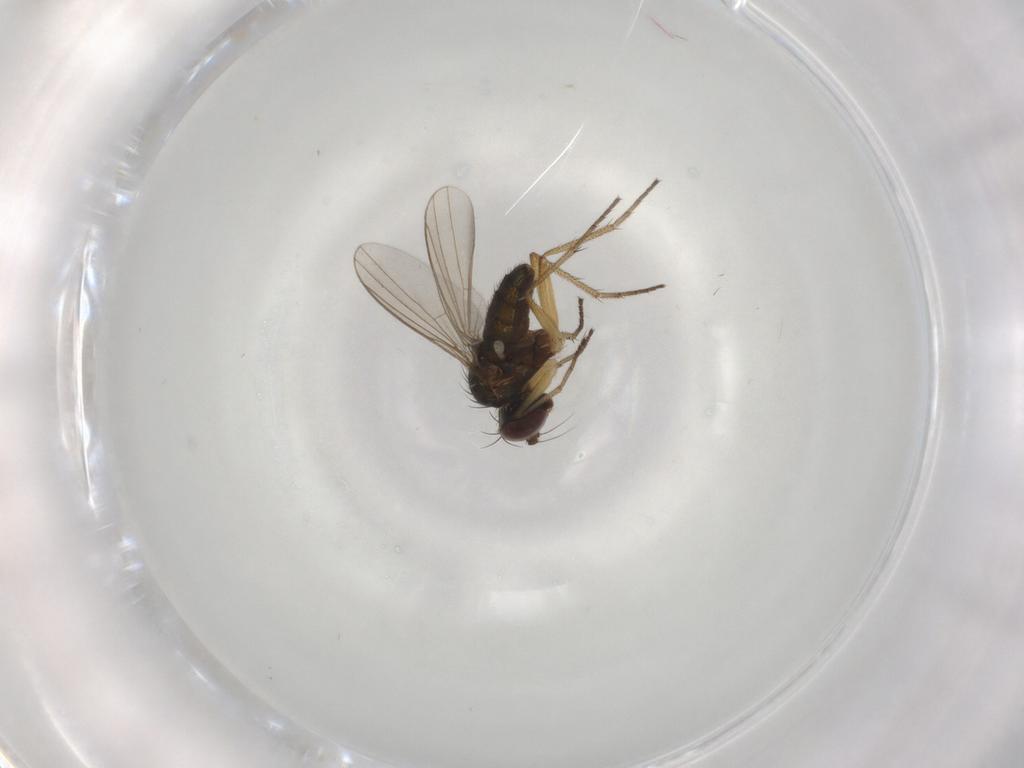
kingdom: Animalia
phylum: Arthropoda
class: Insecta
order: Diptera
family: Dolichopodidae
